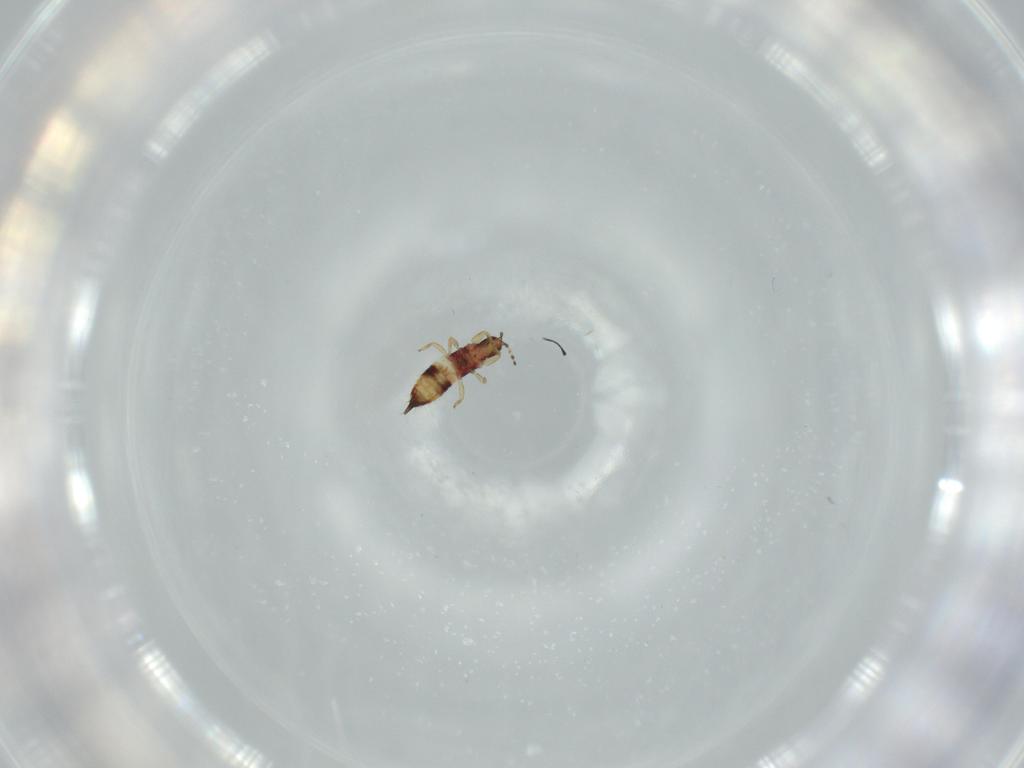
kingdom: Animalia
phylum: Arthropoda
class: Insecta
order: Thysanoptera
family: Phlaeothripidae
